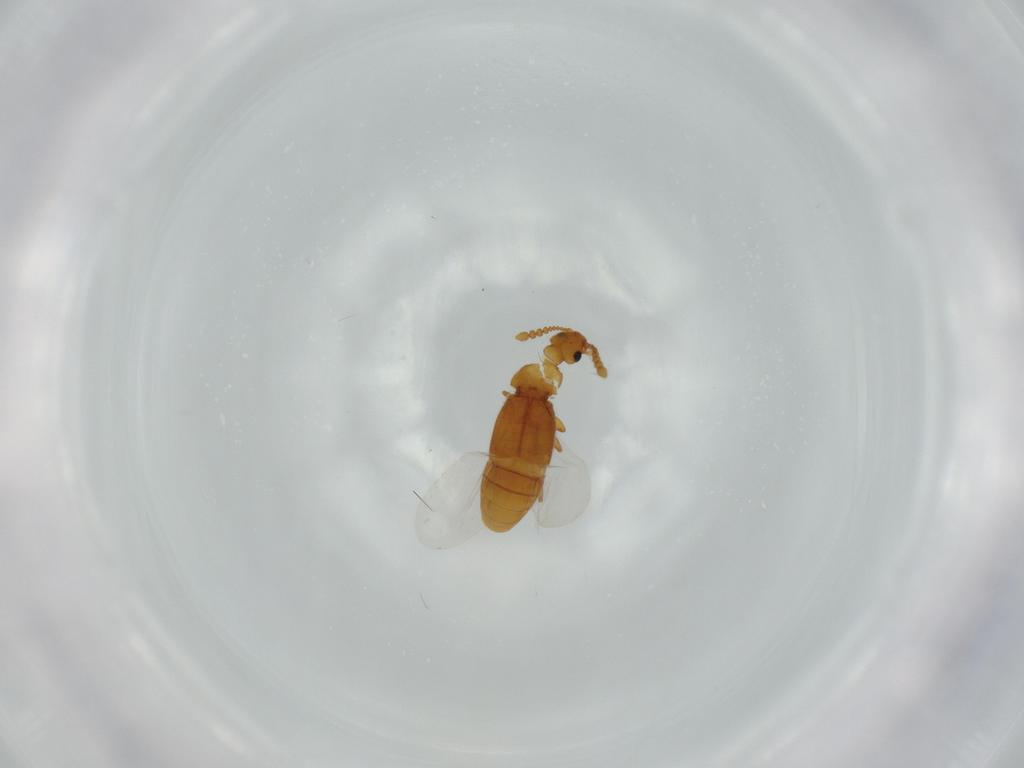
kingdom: Animalia
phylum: Arthropoda
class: Insecta
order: Coleoptera
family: Staphylinidae
